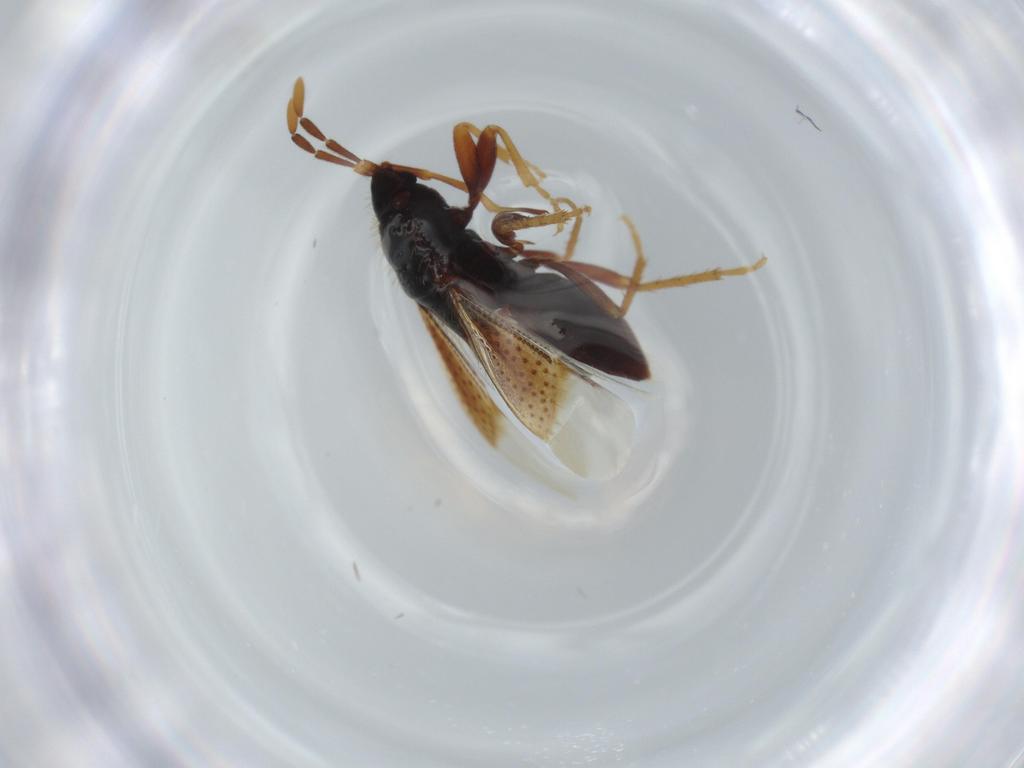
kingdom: Animalia
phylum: Arthropoda
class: Insecta
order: Hemiptera
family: Rhyparochromidae
